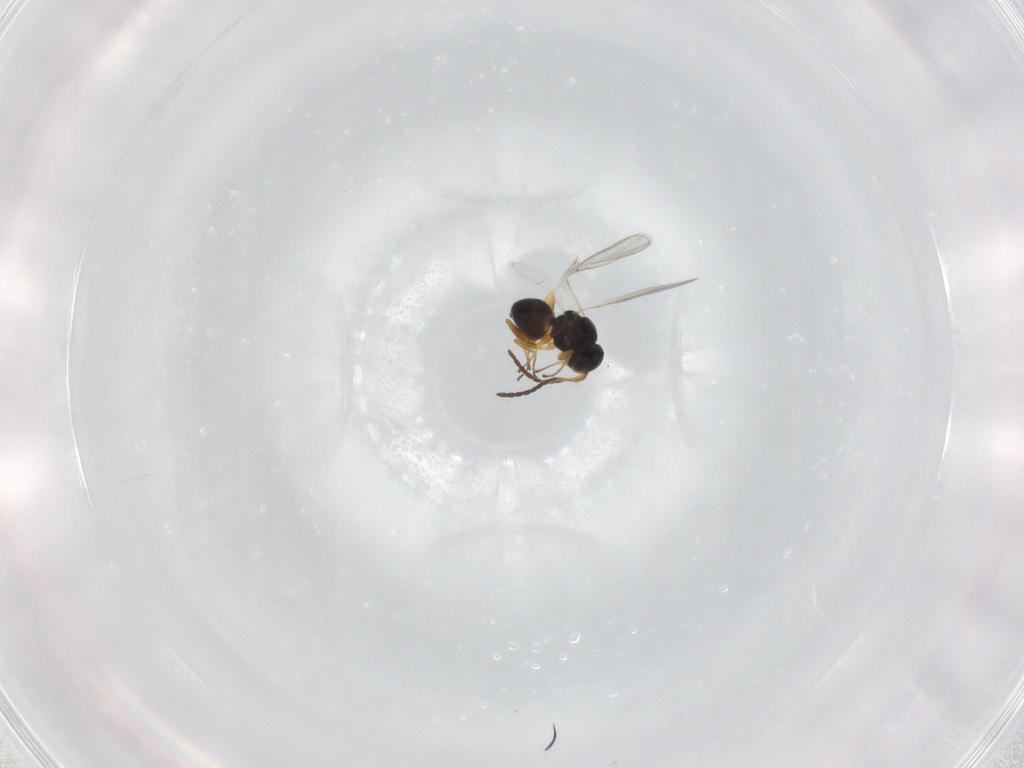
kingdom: Animalia
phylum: Arthropoda
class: Insecta
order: Hymenoptera
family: Figitidae
